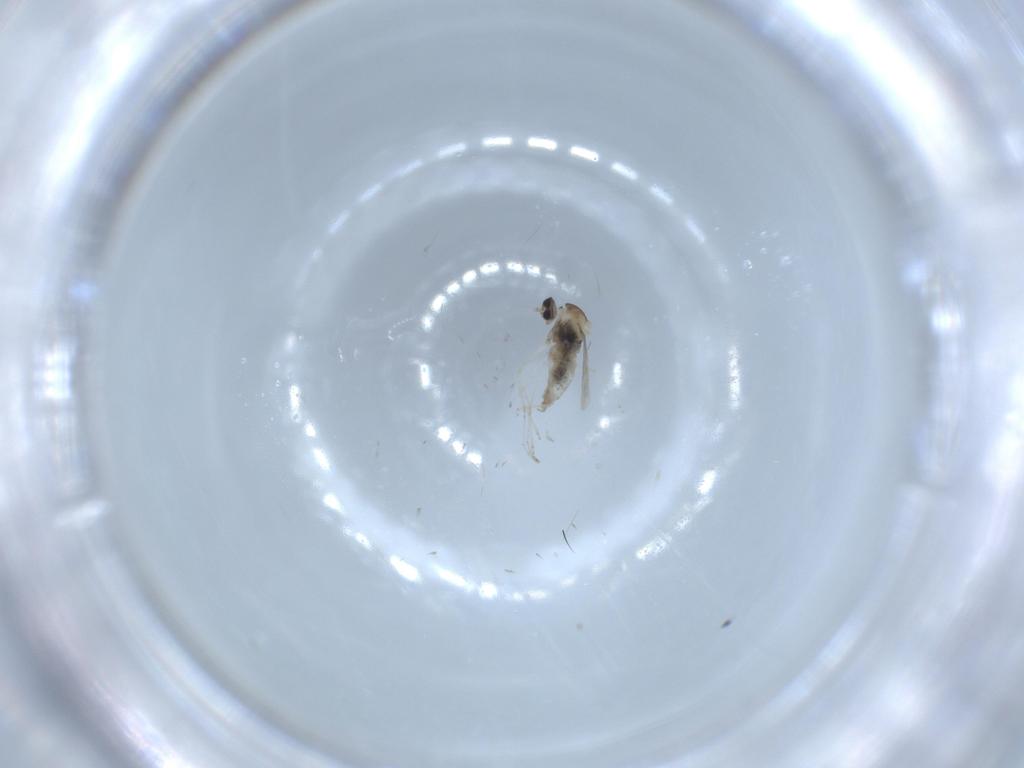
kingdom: Animalia
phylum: Arthropoda
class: Insecta
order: Diptera
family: Cecidomyiidae
